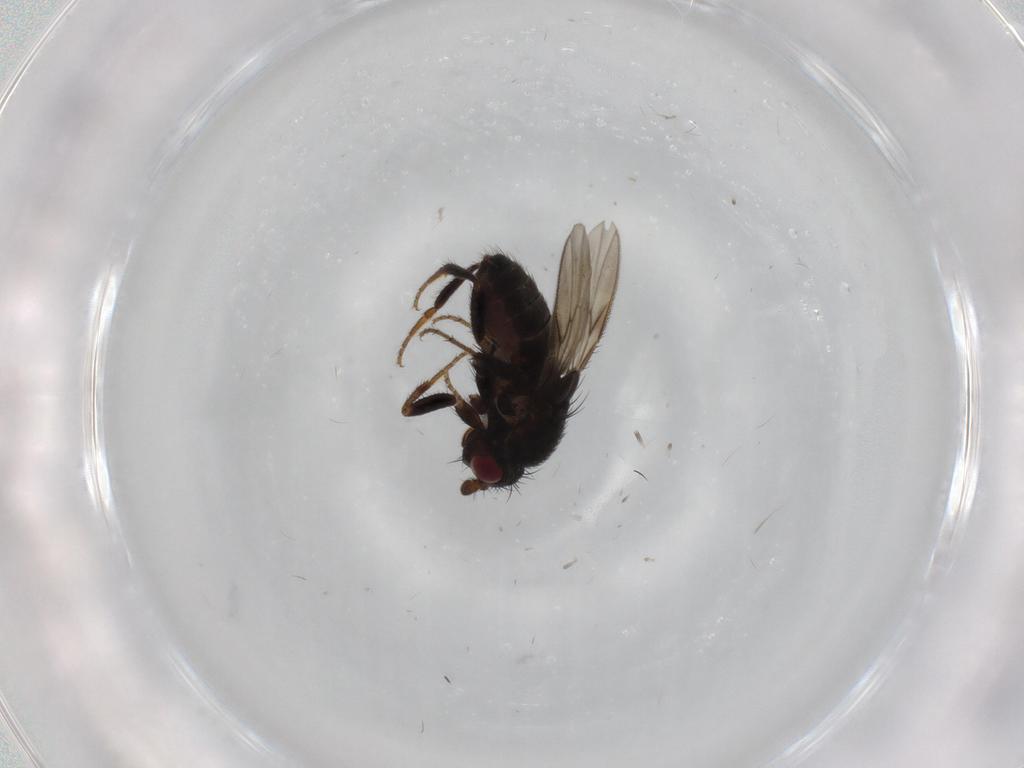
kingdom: Animalia
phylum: Arthropoda
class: Insecta
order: Diptera
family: Sphaeroceridae
